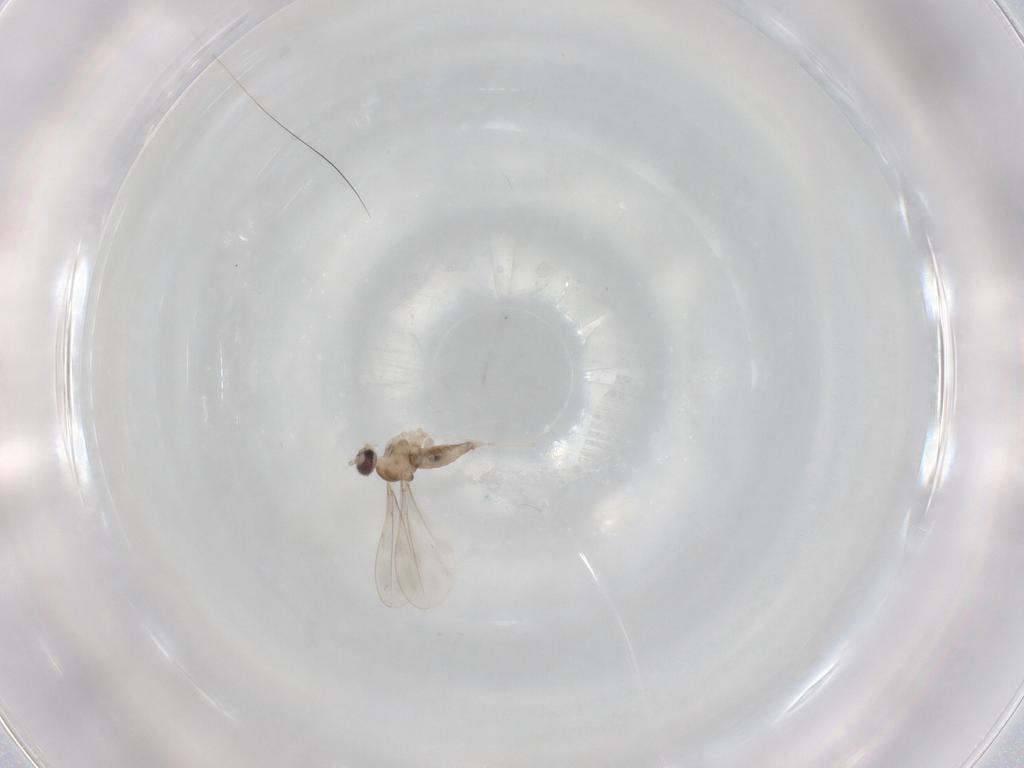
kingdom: Animalia
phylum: Arthropoda
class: Insecta
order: Diptera
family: Cecidomyiidae
